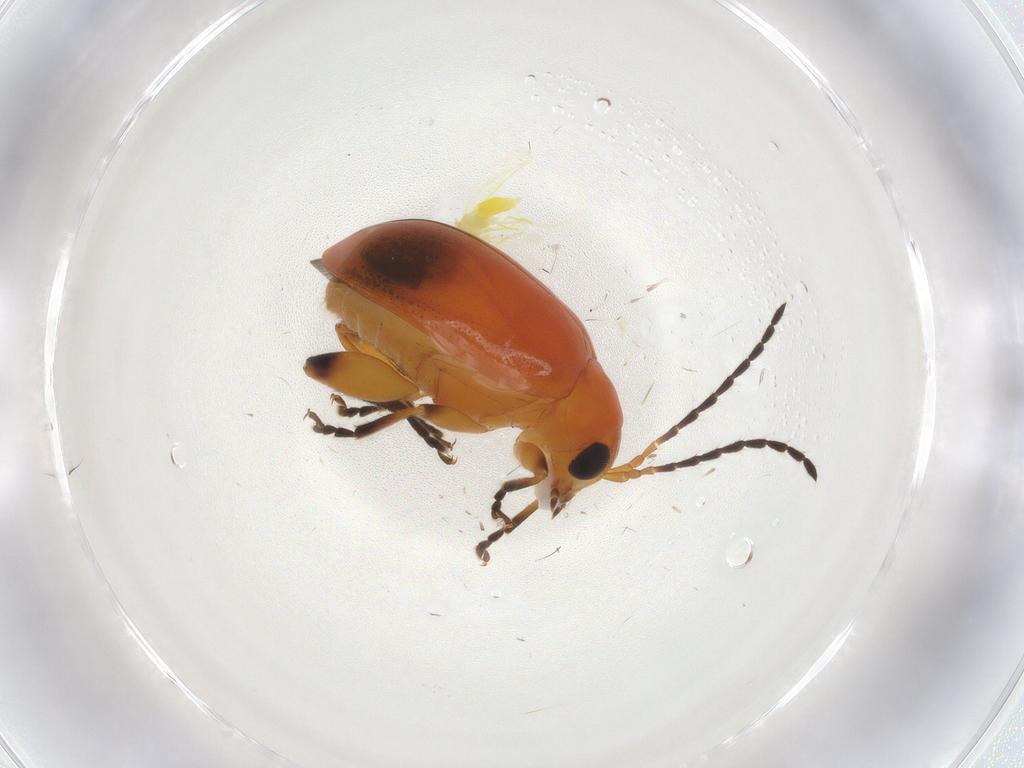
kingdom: Animalia
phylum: Arthropoda
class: Insecta
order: Coleoptera
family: Chrysomelidae
